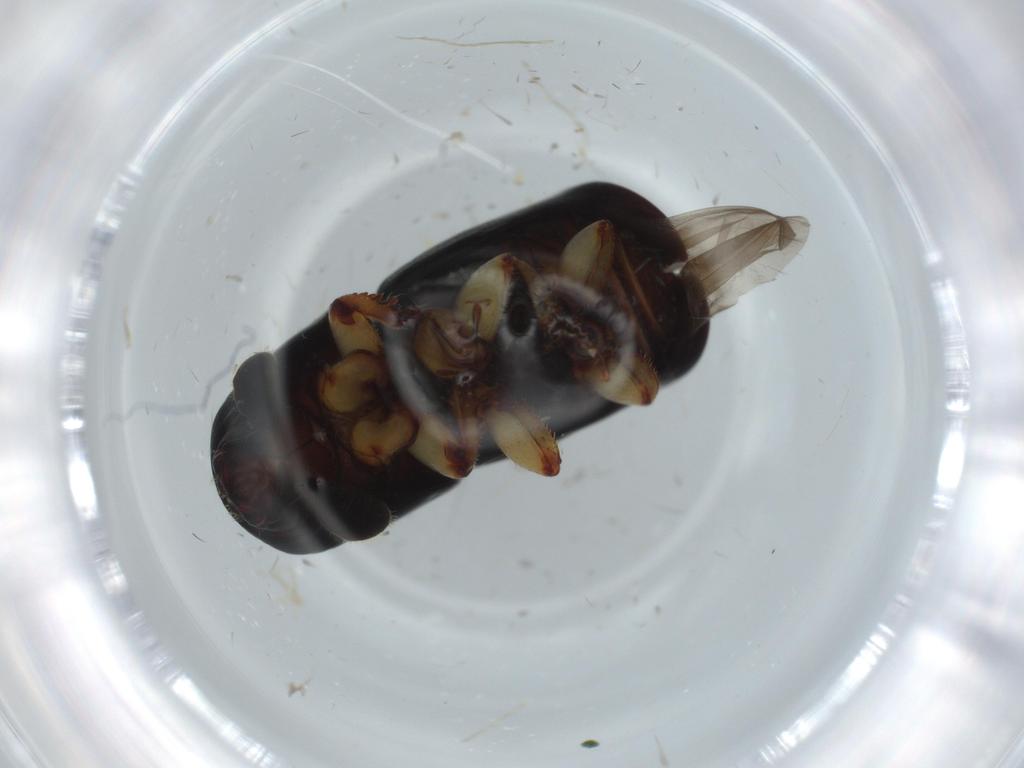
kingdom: Animalia
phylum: Arthropoda
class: Insecta
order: Coleoptera
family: Curculionidae
